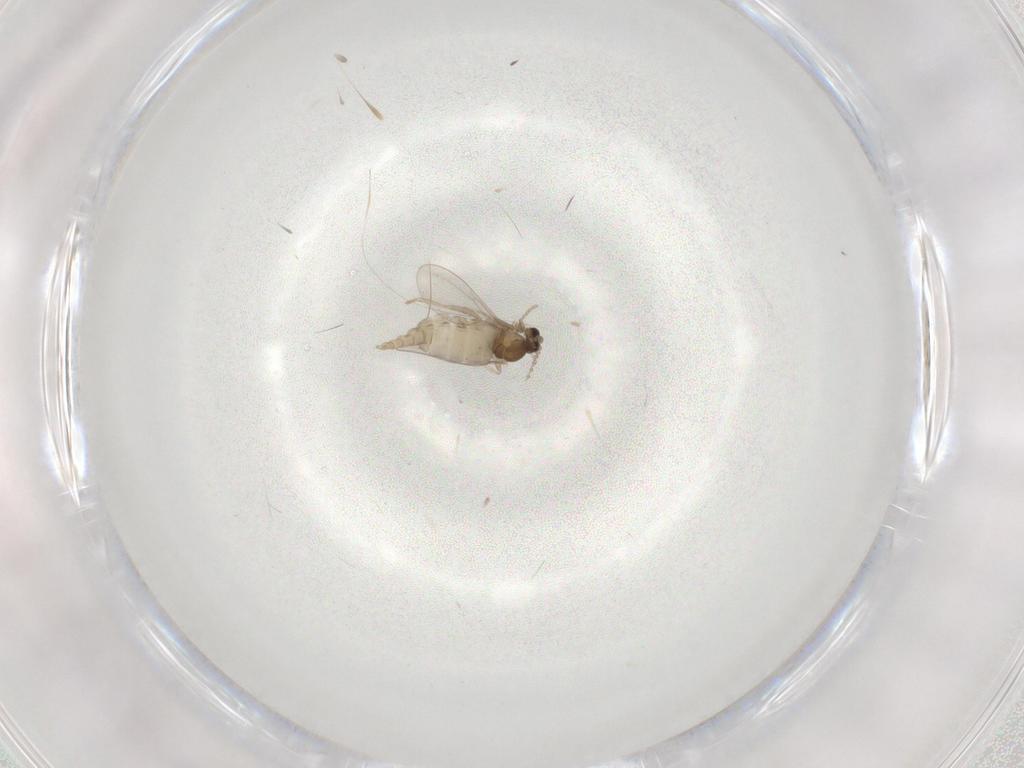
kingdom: Animalia
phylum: Arthropoda
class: Insecta
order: Diptera
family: Cecidomyiidae
